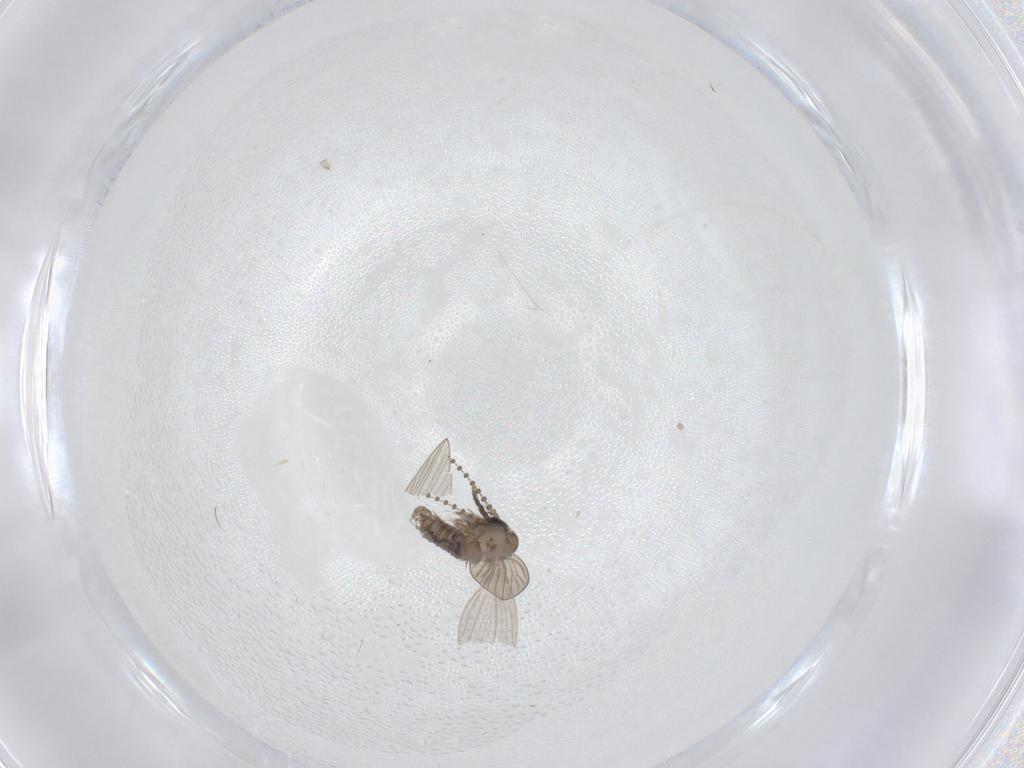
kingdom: Animalia
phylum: Arthropoda
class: Insecta
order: Diptera
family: Psychodidae
